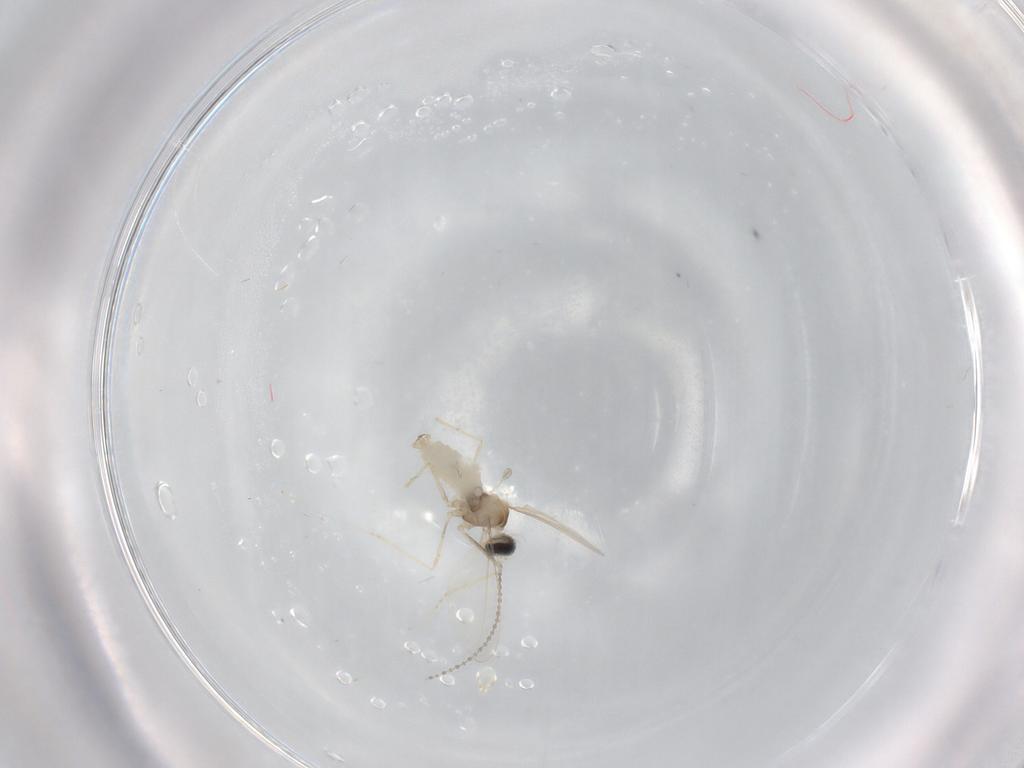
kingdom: Animalia
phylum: Arthropoda
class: Insecta
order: Diptera
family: Cecidomyiidae
